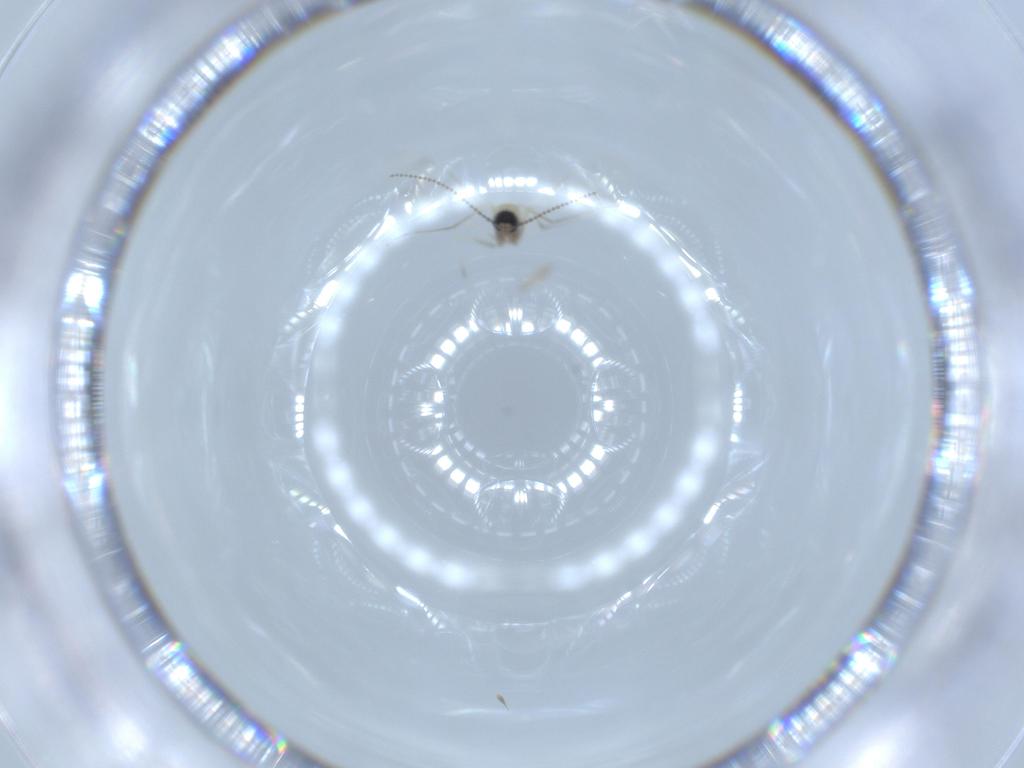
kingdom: Animalia
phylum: Arthropoda
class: Insecta
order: Diptera
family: Cecidomyiidae
